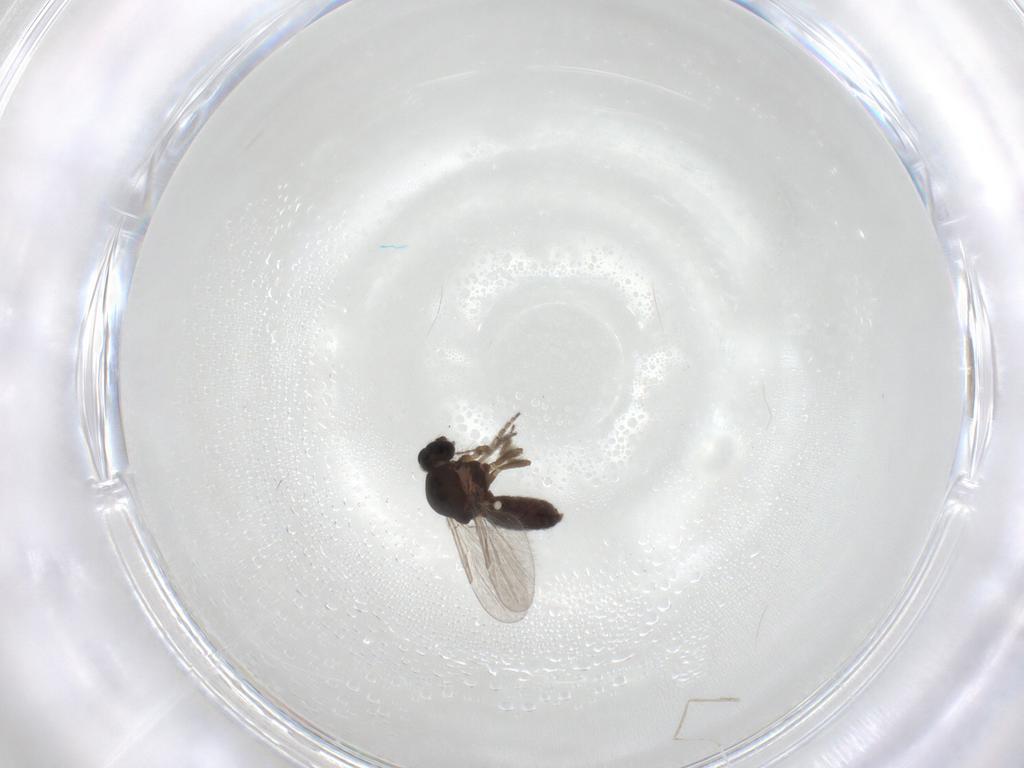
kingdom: Animalia
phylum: Arthropoda
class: Insecta
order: Diptera
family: Ceratopogonidae
